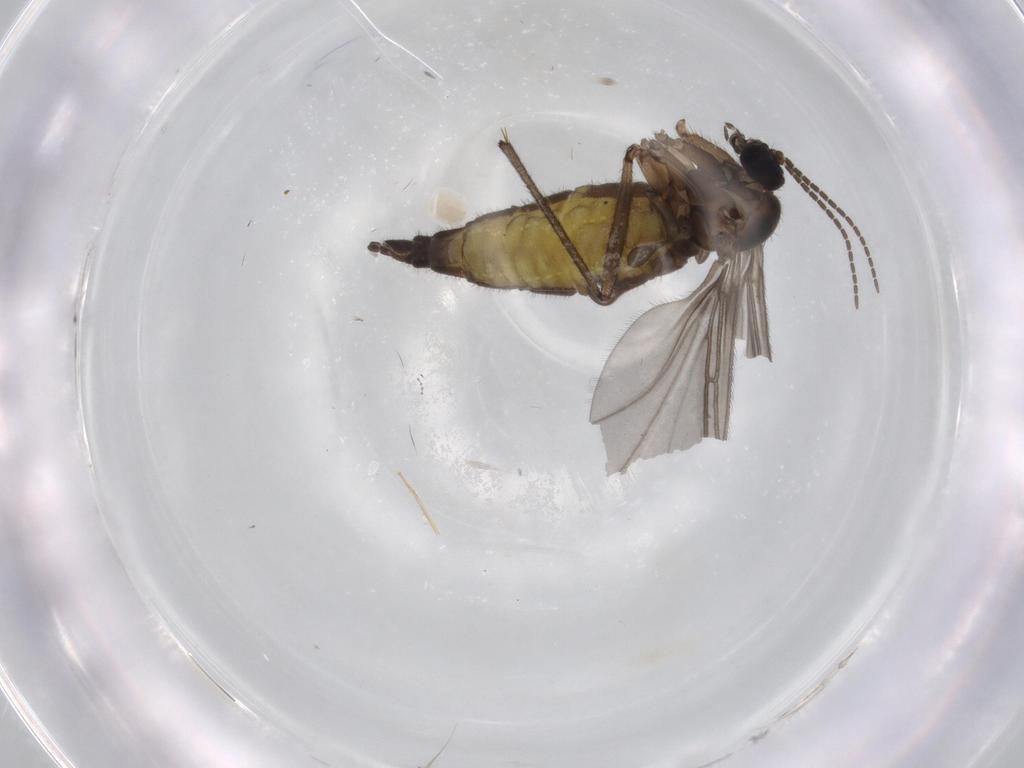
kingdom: Animalia
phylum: Arthropoda
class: Insecta
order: Diptera
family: Sciaridae
